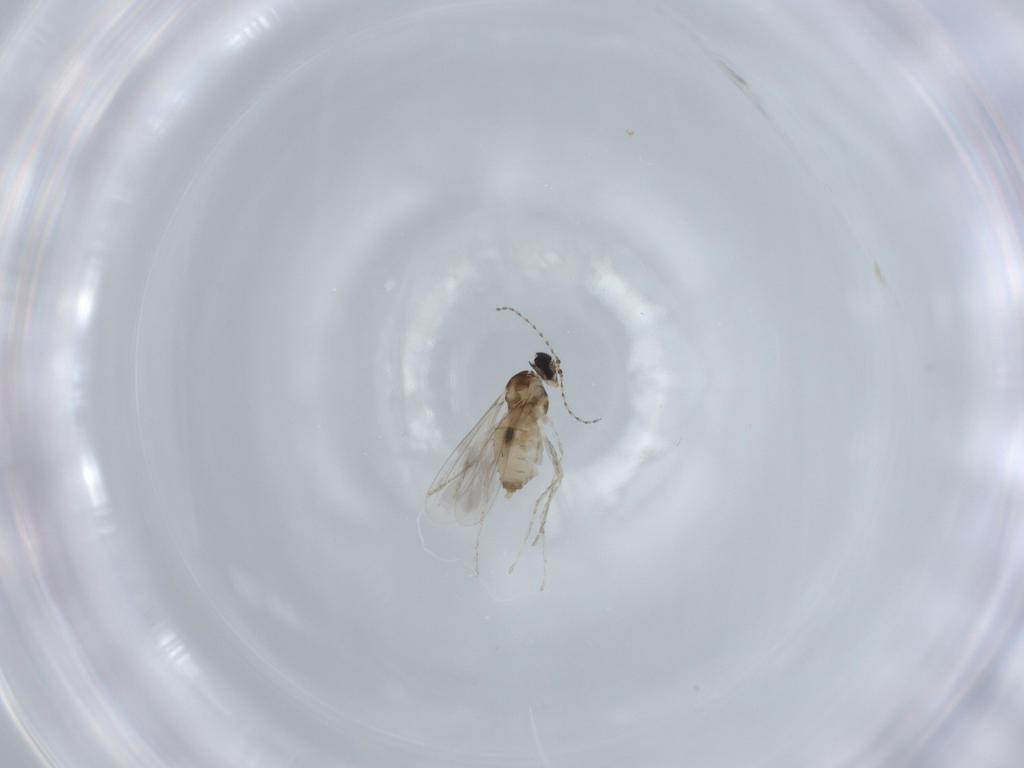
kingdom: Animalia
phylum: Arthropoda
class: Insecta
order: Diptera
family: Cecidomyiidae
